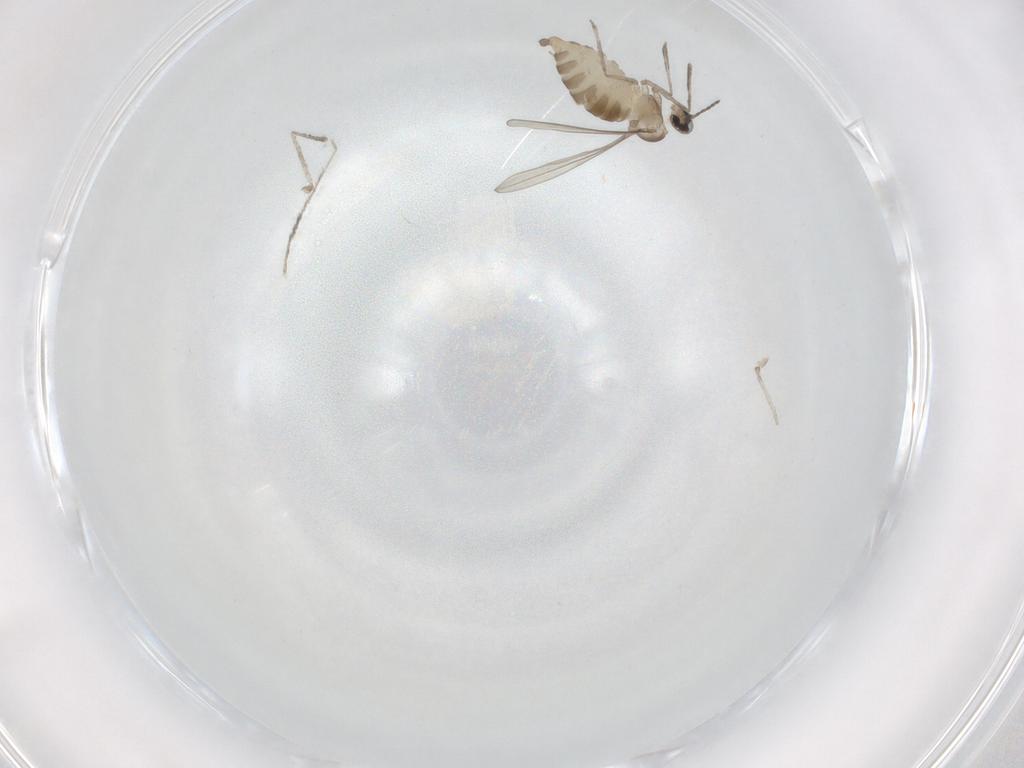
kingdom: Animalia
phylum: Arthropoda
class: Insecta
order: Diptera
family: Cecidomyiidae
